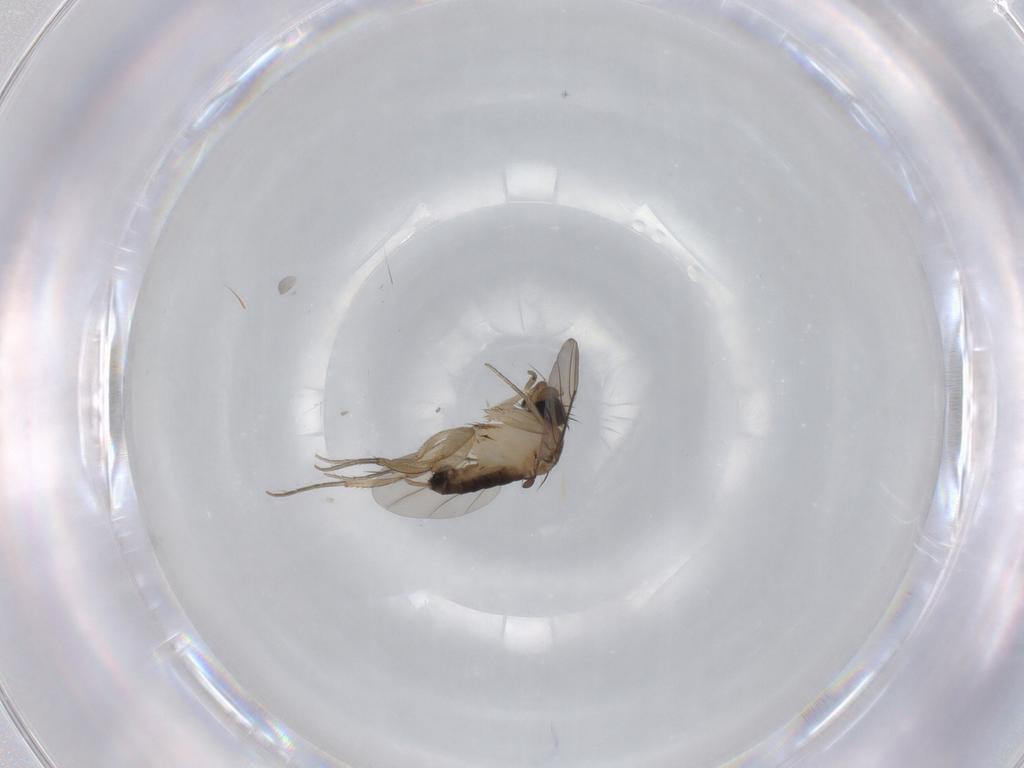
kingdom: Animalia
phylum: Arthropoda
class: Insecta
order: Diptera
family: Phoridae
